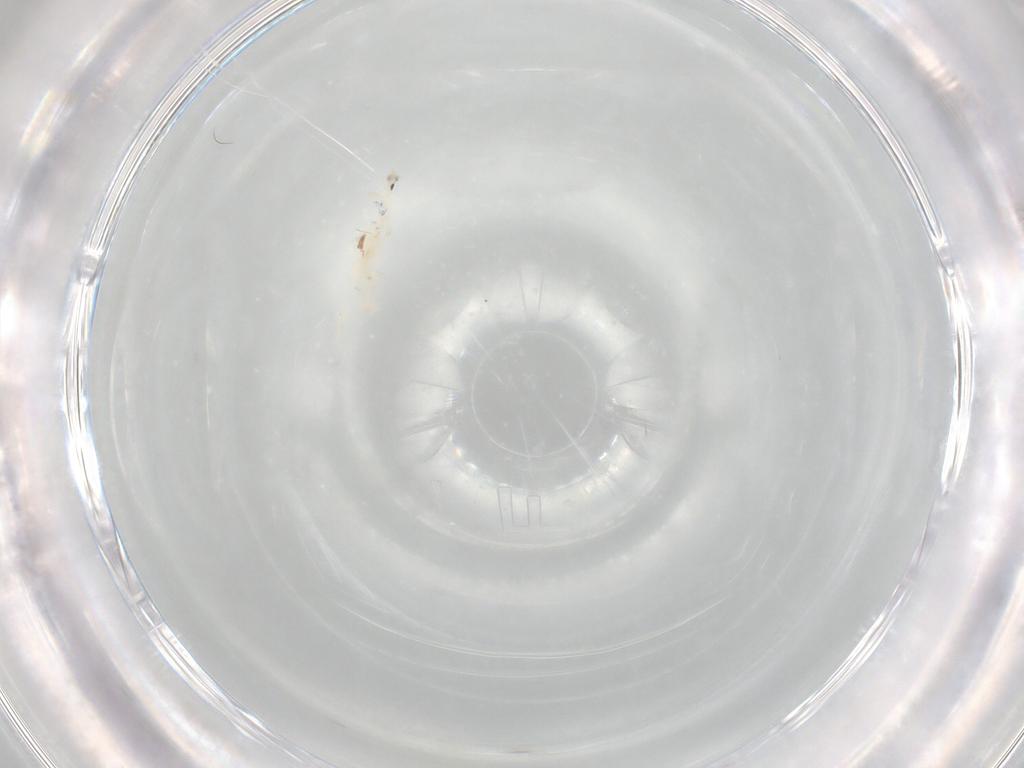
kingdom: Animalia
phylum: Arthropoda
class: Collembola
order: Entomobryomorpha
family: Entomobryidae
